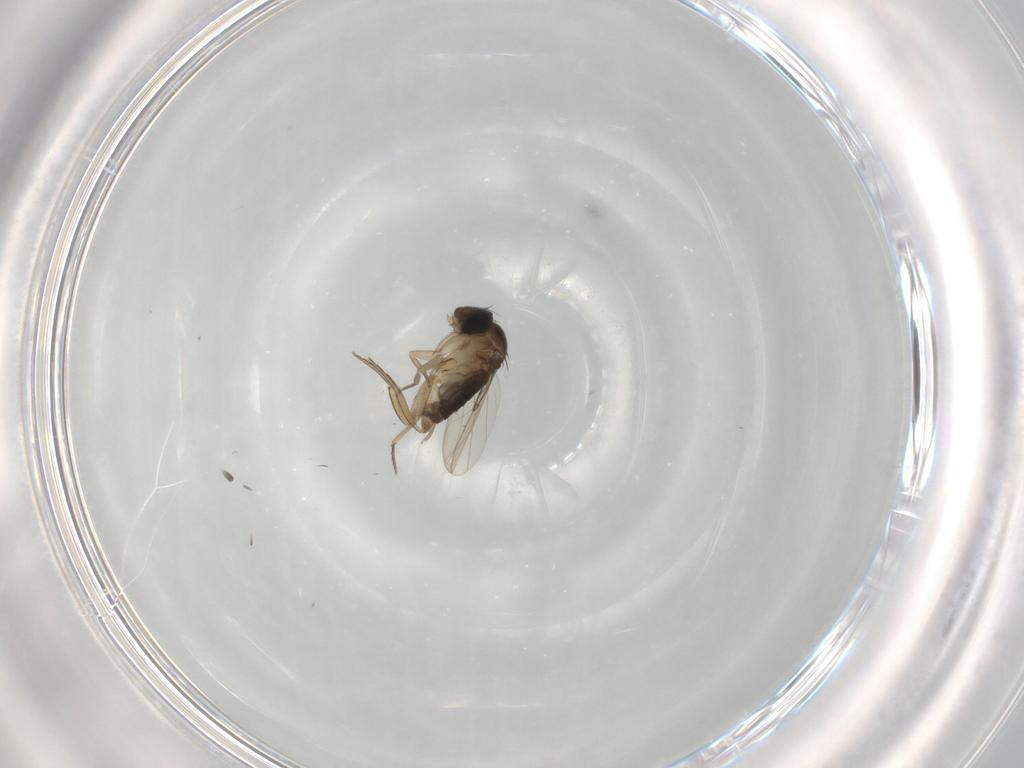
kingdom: Animalia
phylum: Arthropoda
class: Insecta
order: Diptera
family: Phoridae
